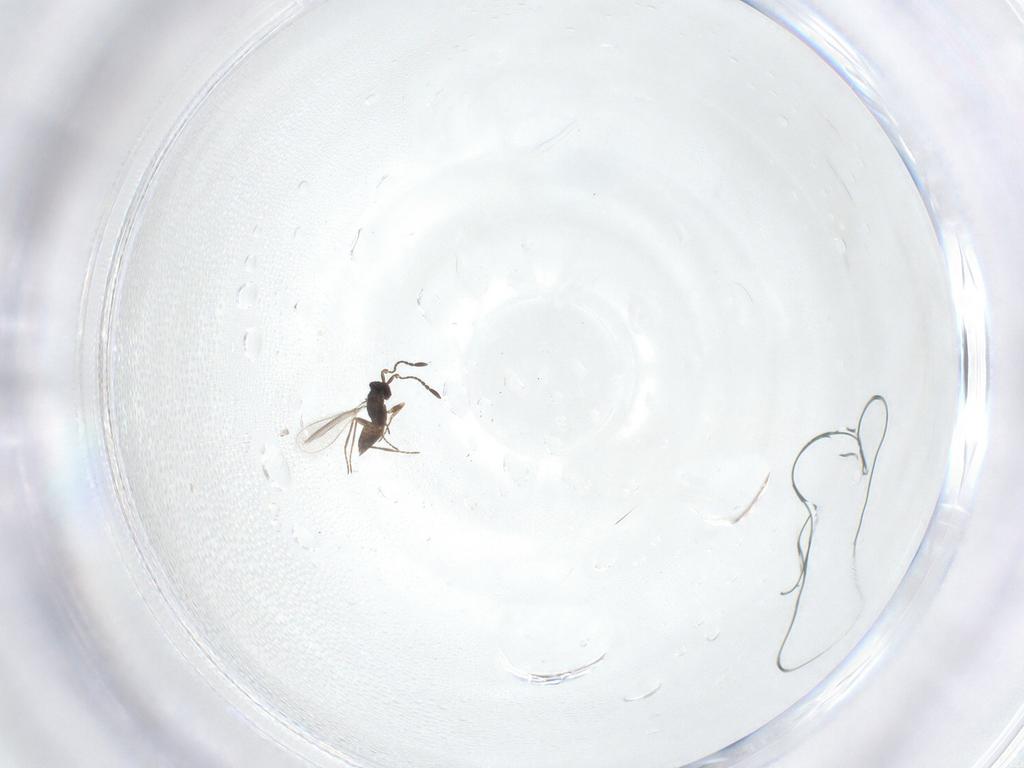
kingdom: Animalia
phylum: Arthropoda
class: Insecta
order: Hymenoptera
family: Mymaridae
